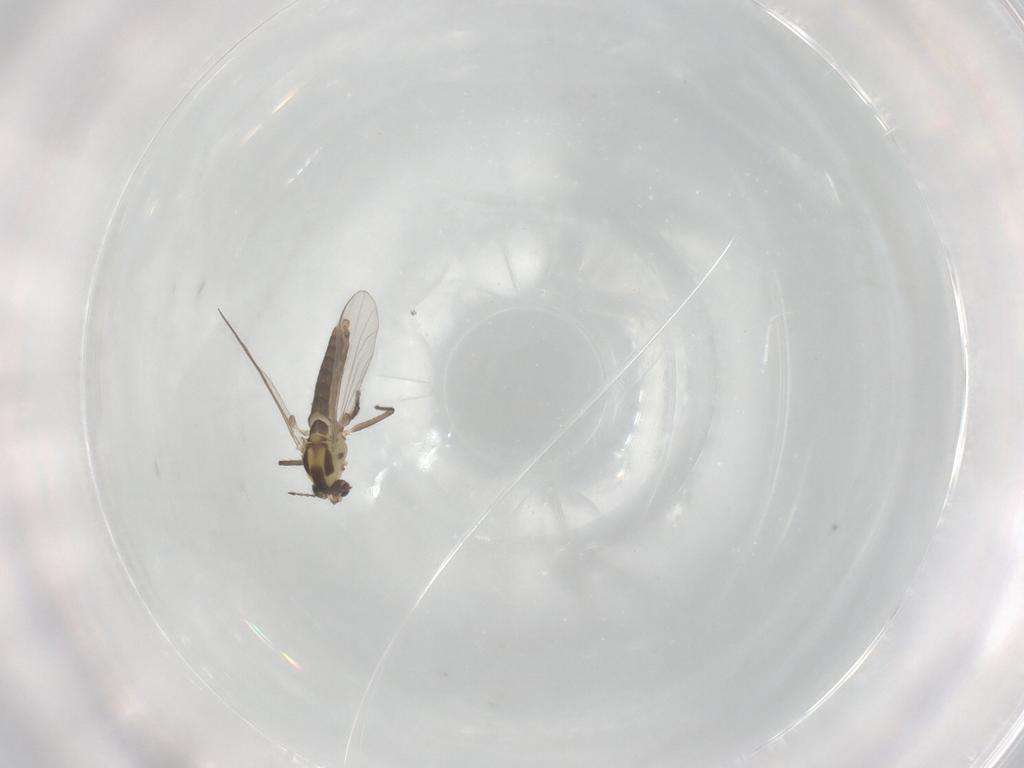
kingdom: Animalia
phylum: Arthropoda
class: Insecta
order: Diptera
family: Chironomidae
